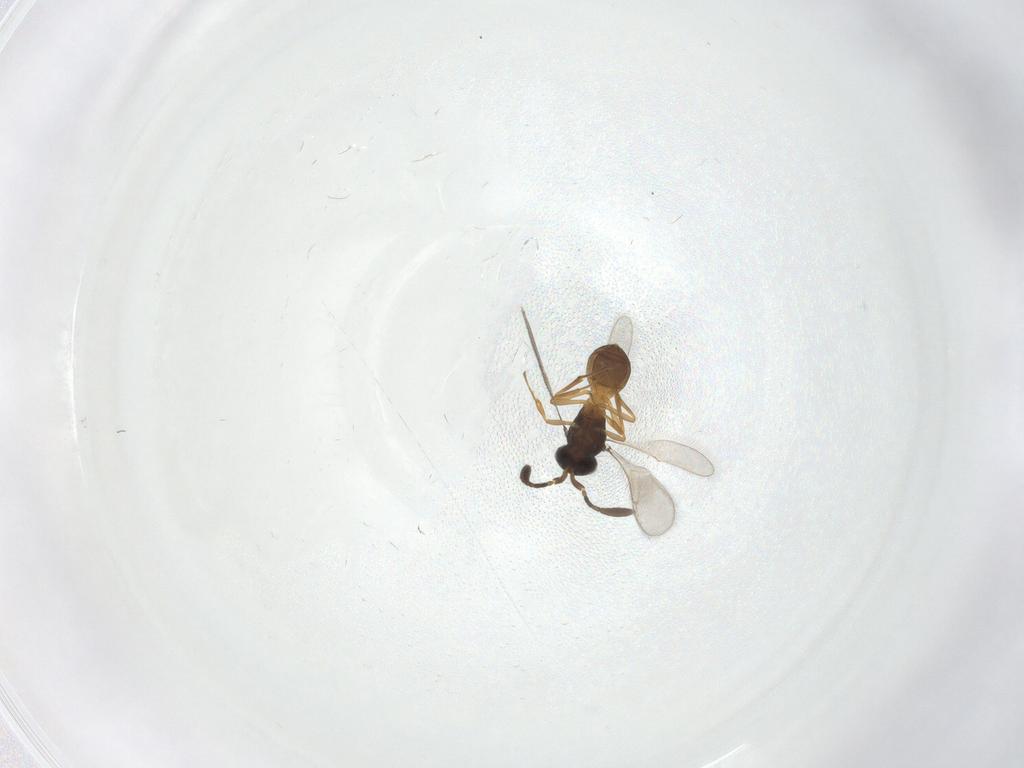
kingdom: Animalia
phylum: Arthropoda
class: Insecta
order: Hymenoptera
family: Scelionidae
